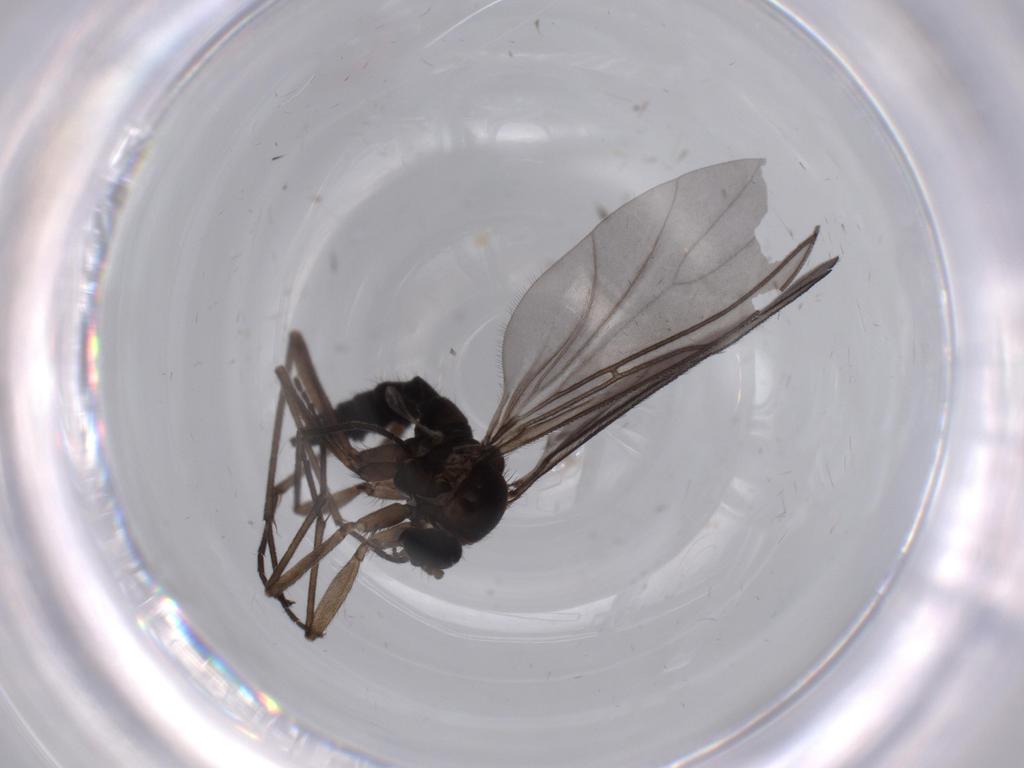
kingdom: Animalia
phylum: Arthropoda
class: Insecta
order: Diptera
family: Sciaridae
